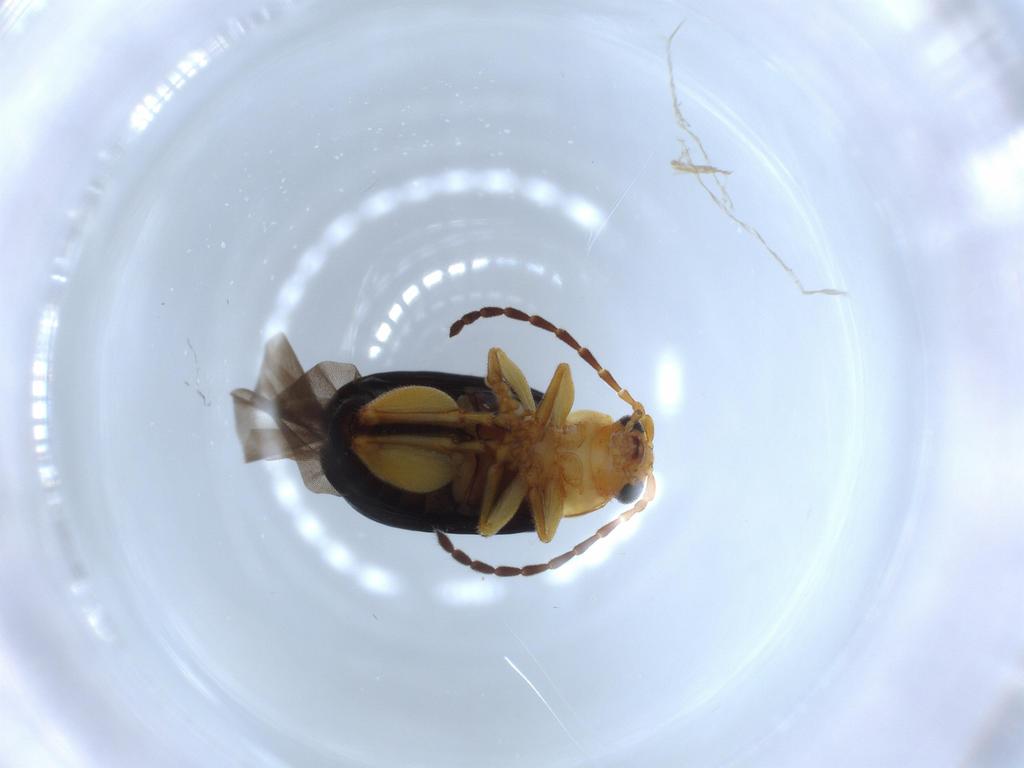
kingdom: Animalia
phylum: Arthropoda
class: Insecta
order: Coleoptera
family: Chrysomelidae
